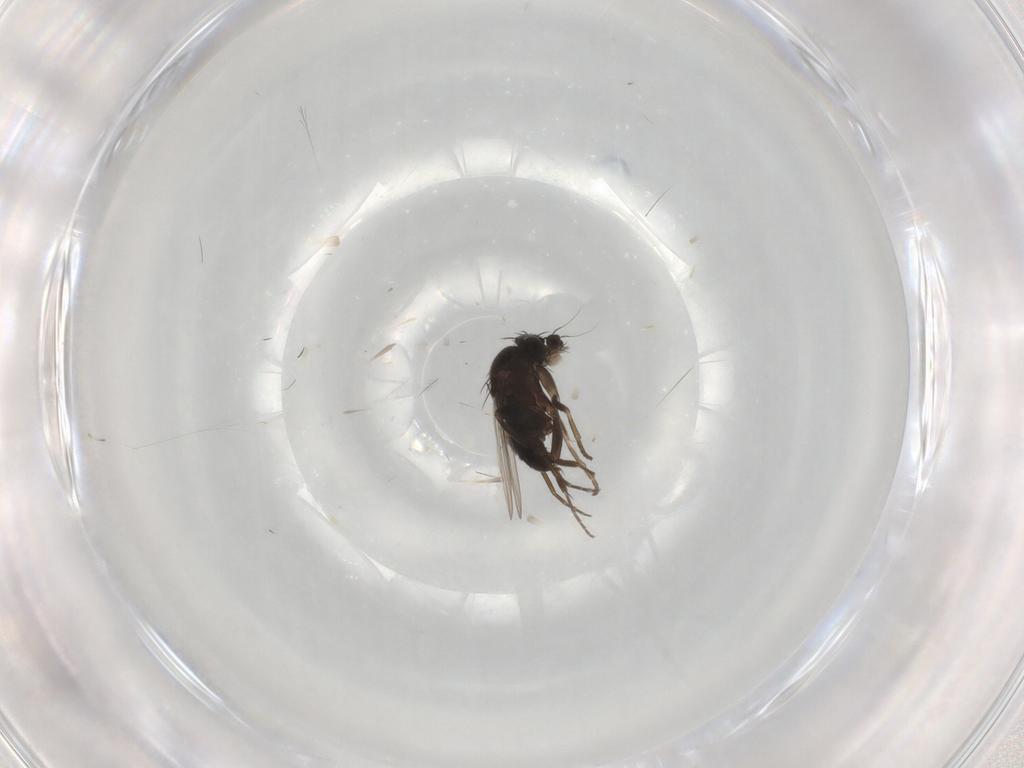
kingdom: Animalia
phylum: Arthropoda
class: Insecta
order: Diptera
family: Phoridae
